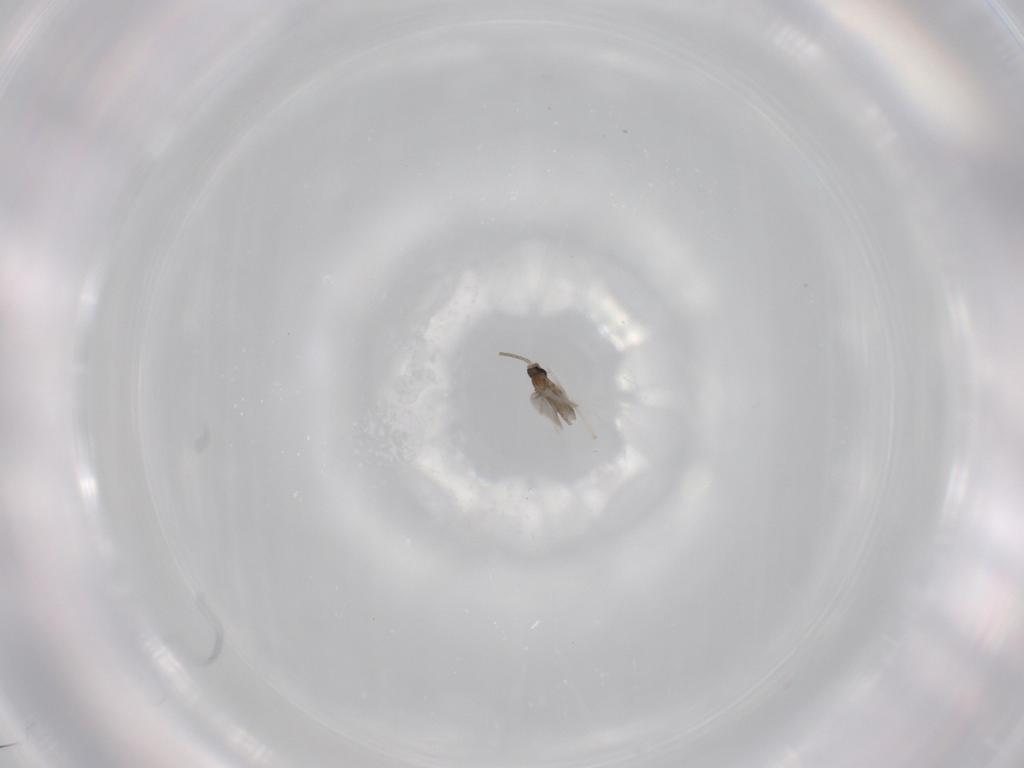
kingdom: Animalia
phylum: Arthropoda
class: Insecta
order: Diptera
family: Cecidomyiidae
